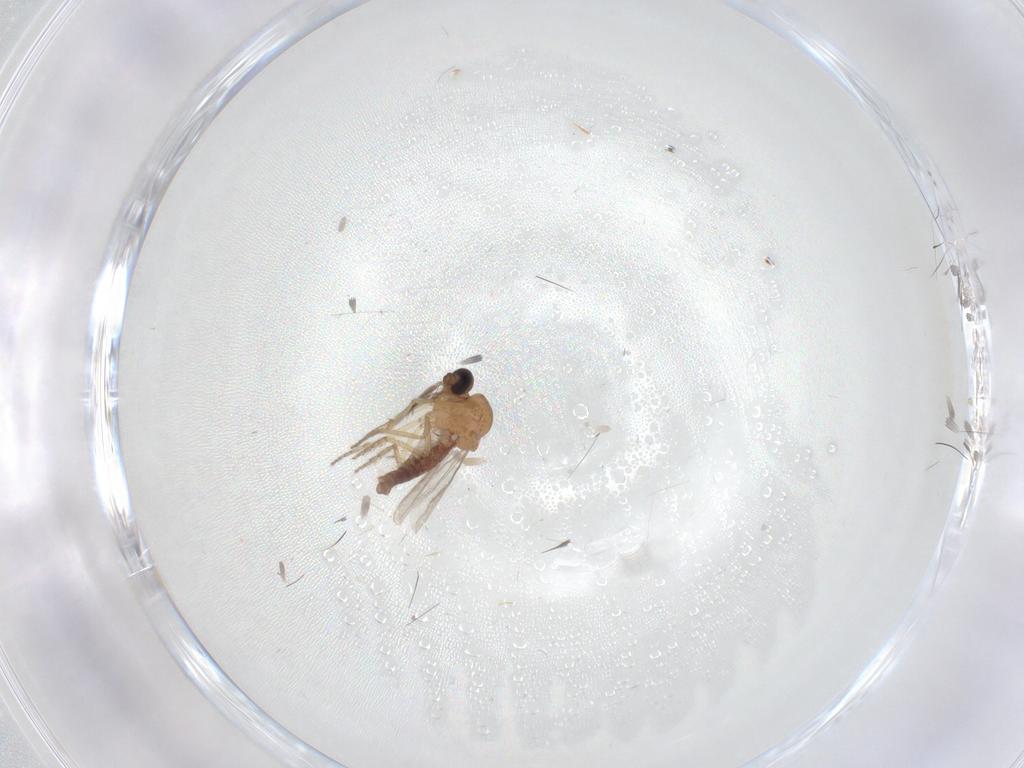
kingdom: Animalia
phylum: Arthropoda
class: Insecta
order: Diptera
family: Ceratopogonidae
